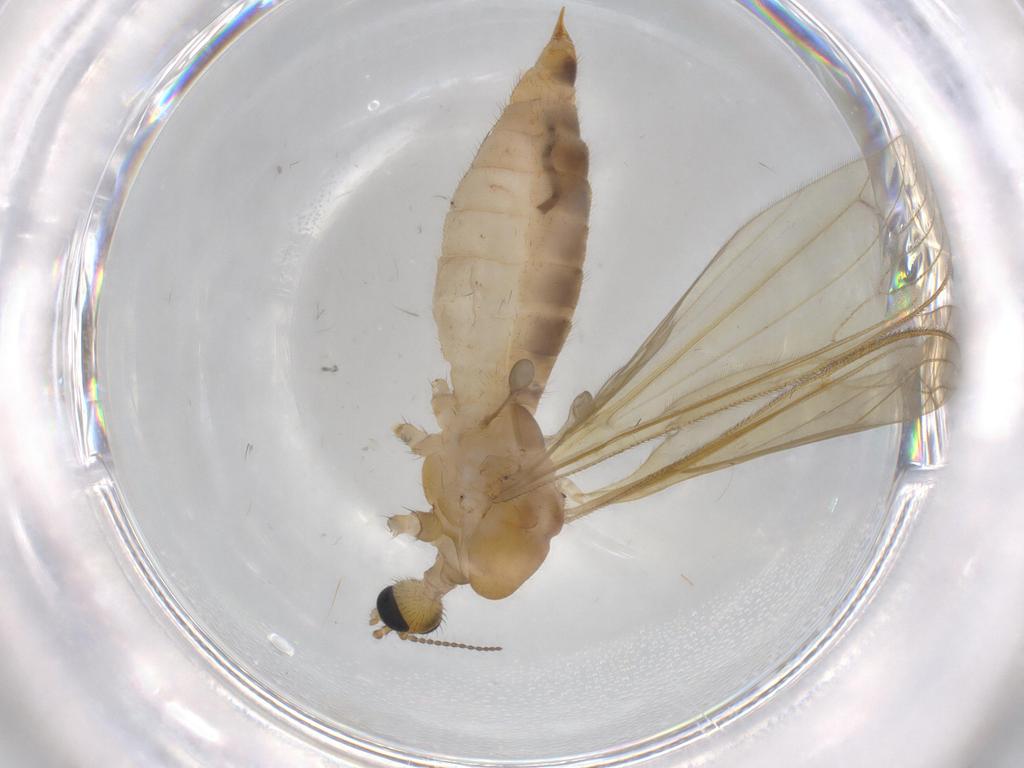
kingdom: Animalia
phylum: Arthropoda
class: Insecta
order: Diptera
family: Phoridae
